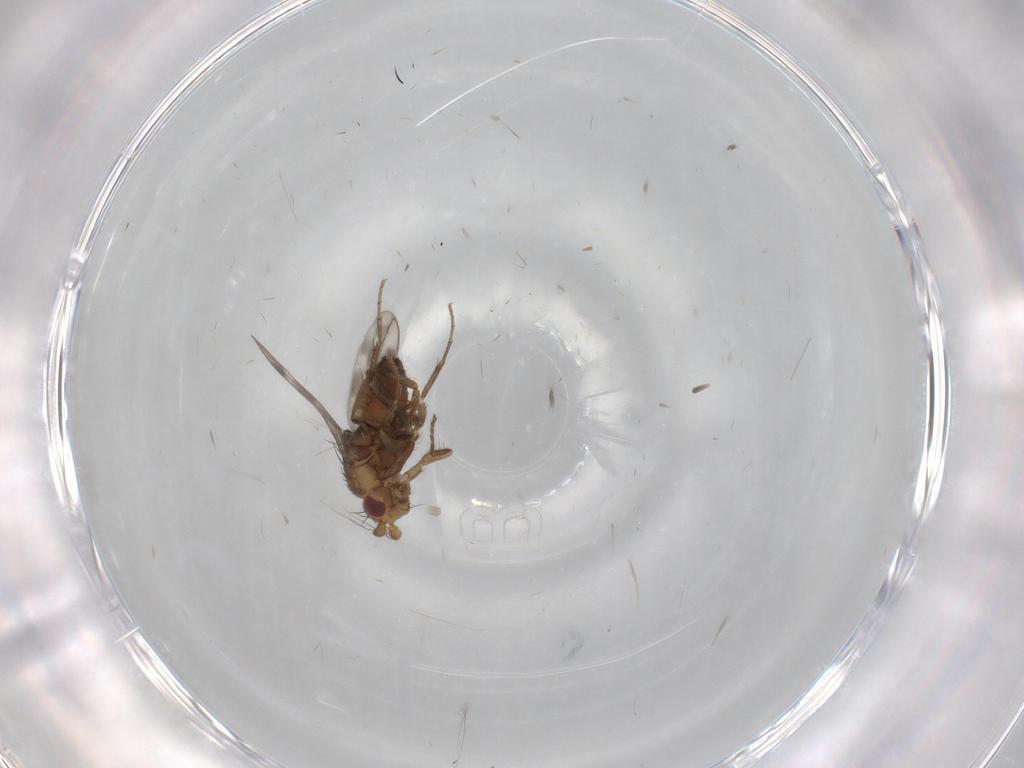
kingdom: Animalia
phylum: Arthropoda
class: Insecta
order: Diptera
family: Sphaeroceridae
